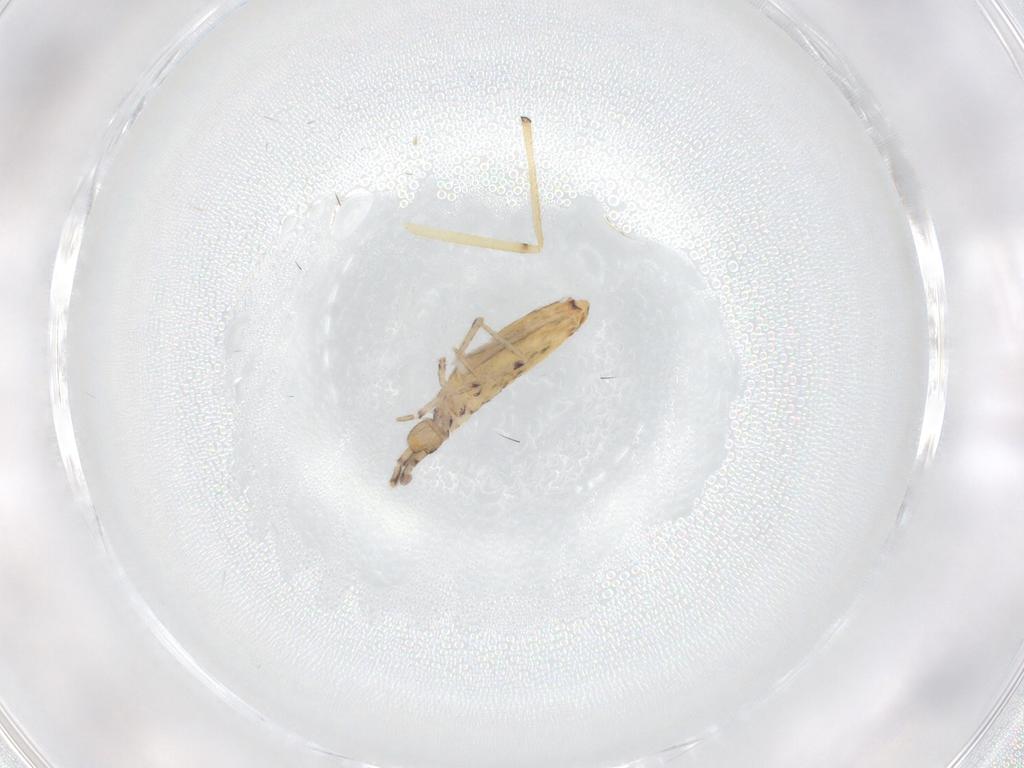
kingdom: Animalia
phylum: Arthropoda
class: Collembola
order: Entomobryomorpha
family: Entomobryidae
